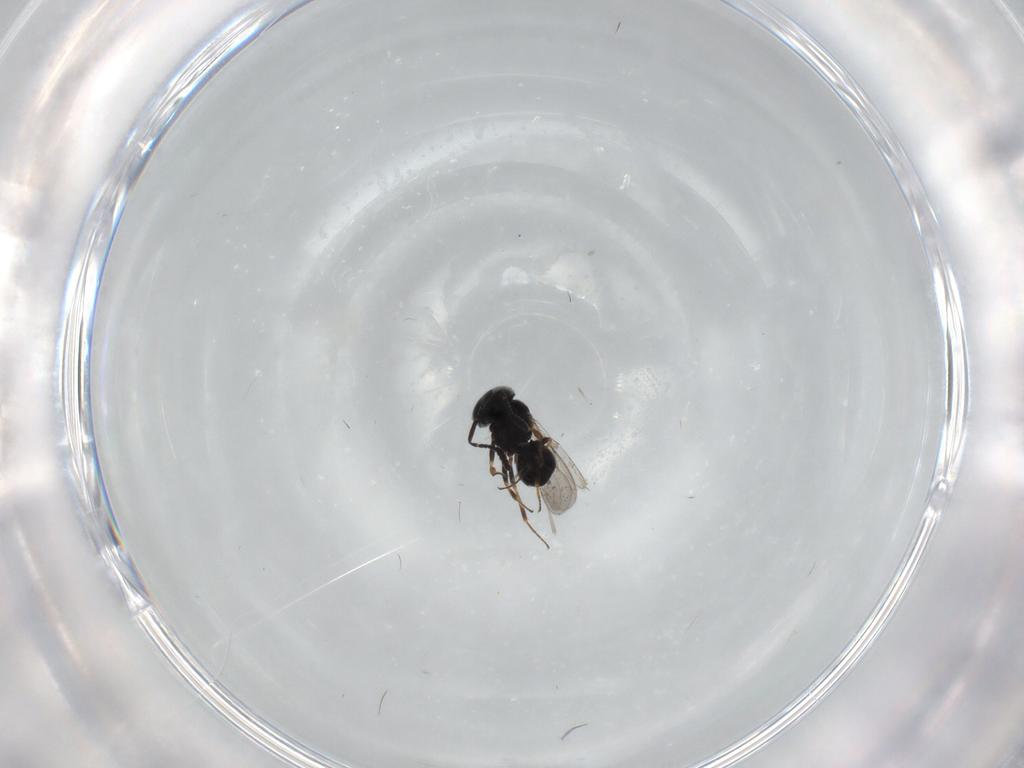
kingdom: Animalia
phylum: Arthropoda
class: Insecta
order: Hymenoptera
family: Scelionidae
